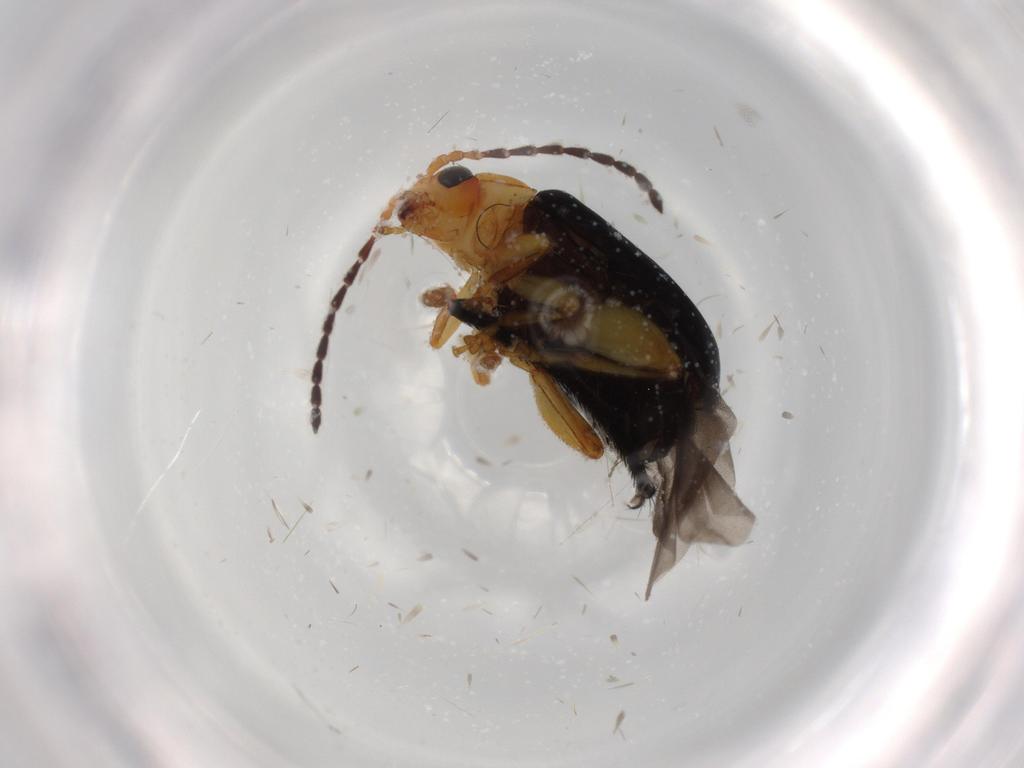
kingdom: Animalia
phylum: Arthropoda
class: Insecta
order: Coleoptera
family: Chrysomelidae
